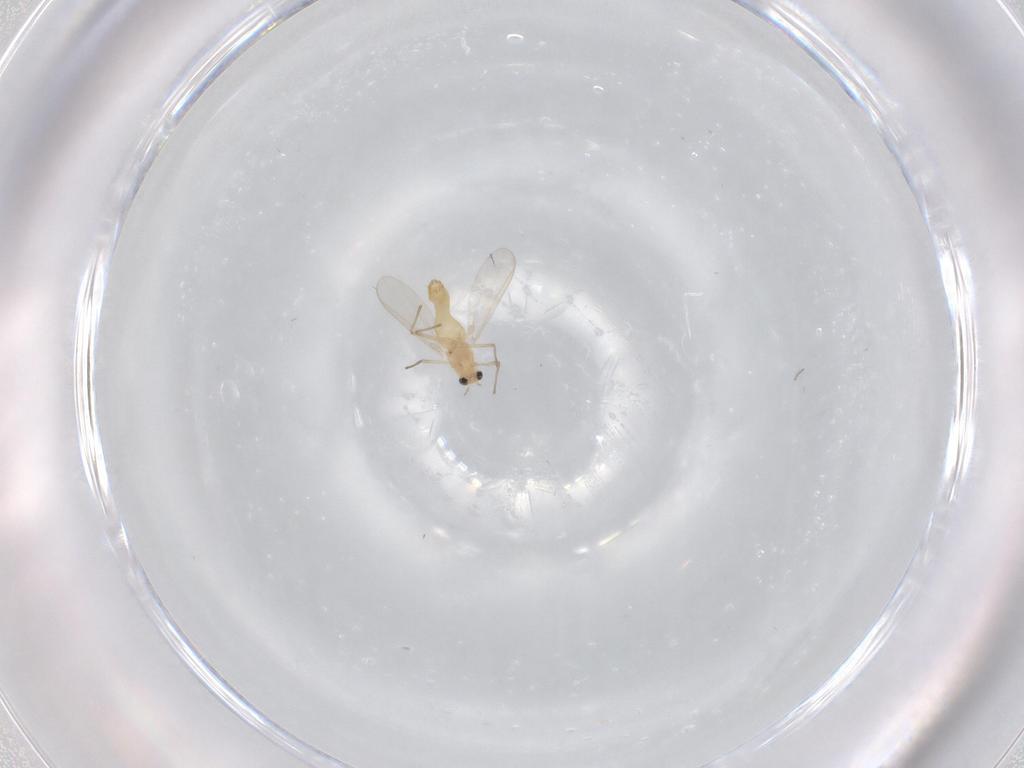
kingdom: Animalia
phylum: Arthropoda
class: Insecta
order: Diptera
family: Chironomidae
